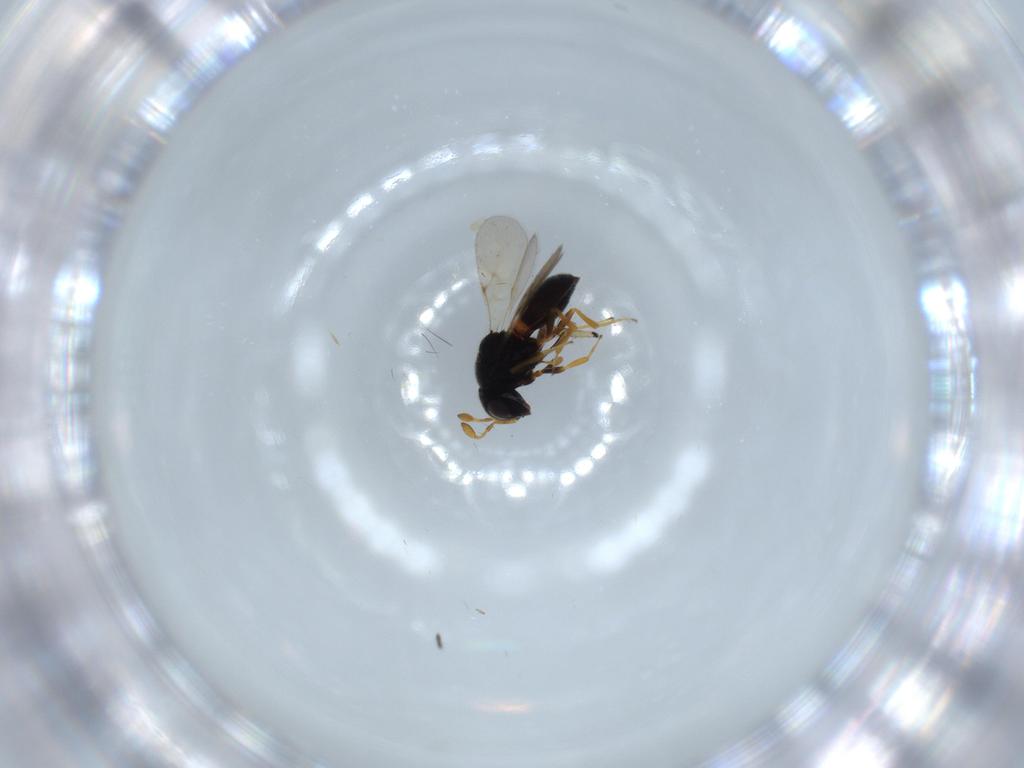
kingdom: Animalia
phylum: Arthropoda
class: Insecta
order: Hymenoptera
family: Scelionidae
